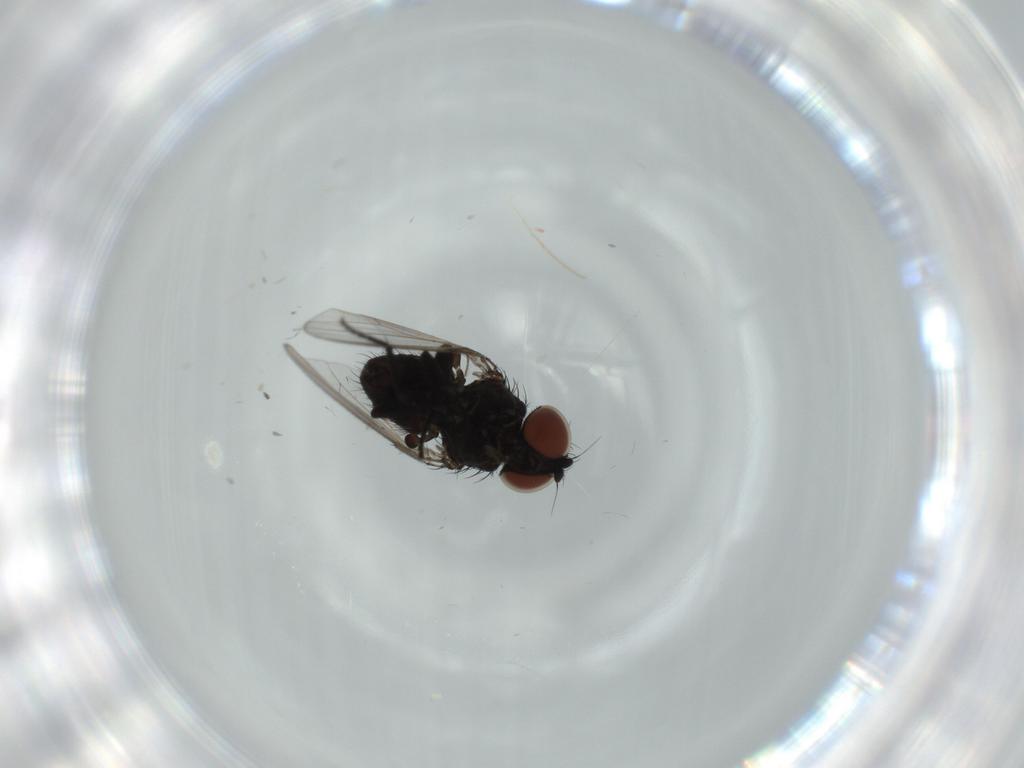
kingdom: Animalia
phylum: Arthropoda
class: Insecta
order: Diptera
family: Milichiidae
